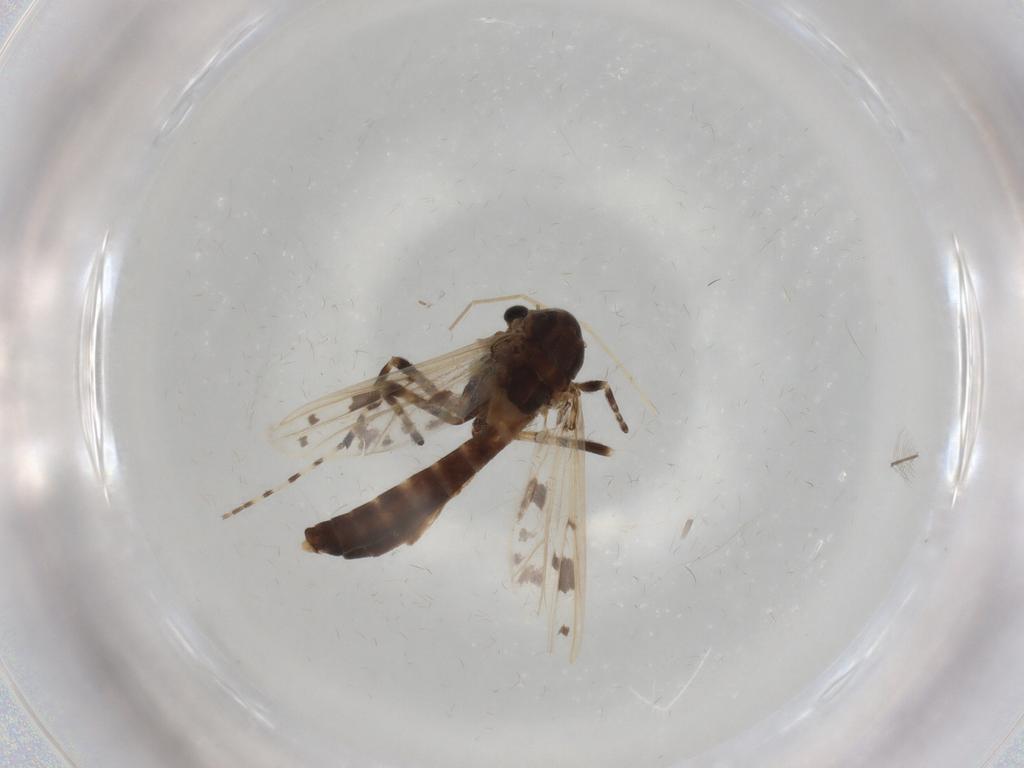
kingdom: Animalia
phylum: Arthropoda
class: Insecta
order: Diptera
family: Chironomidae
